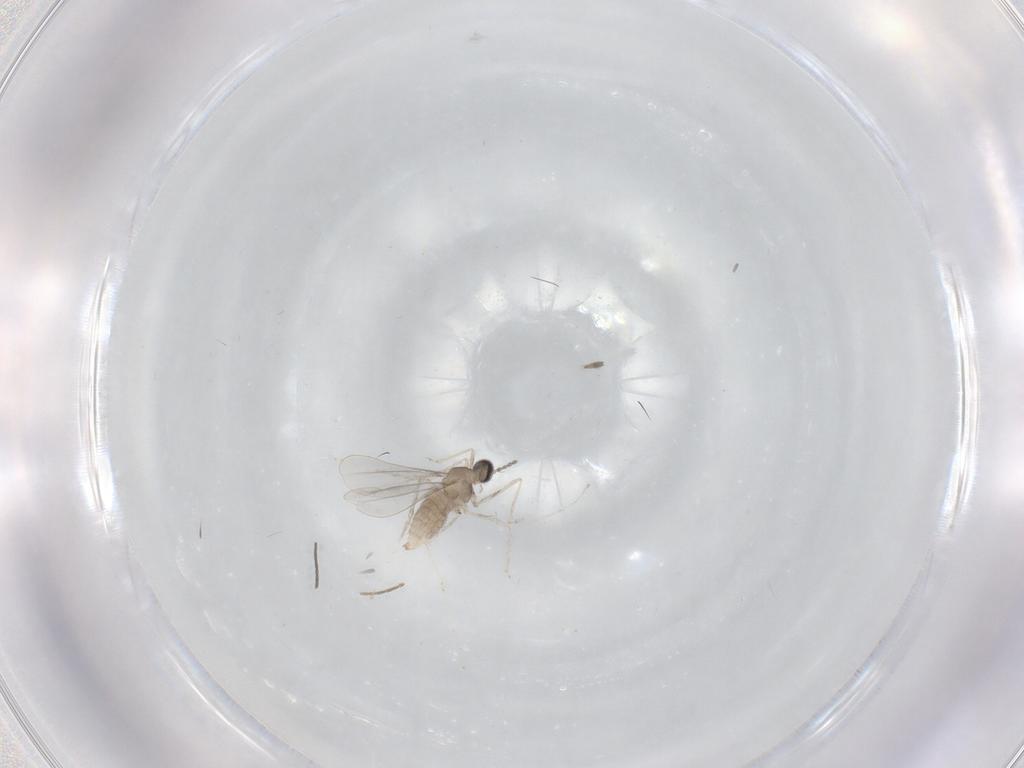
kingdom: Animalia
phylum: Arthropoda
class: Insecta
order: Diptera
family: Cecidomyiidae
